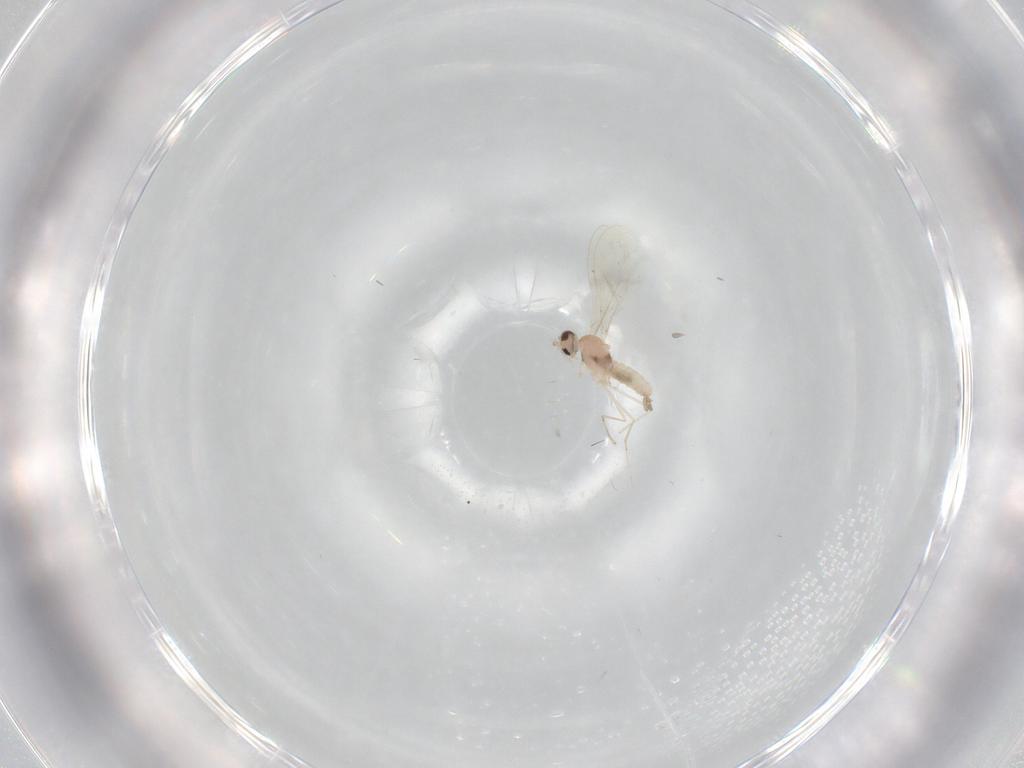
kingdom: Animalia
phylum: Arthropoda
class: Insecta
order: Diptera
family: Cecidomyiidae
